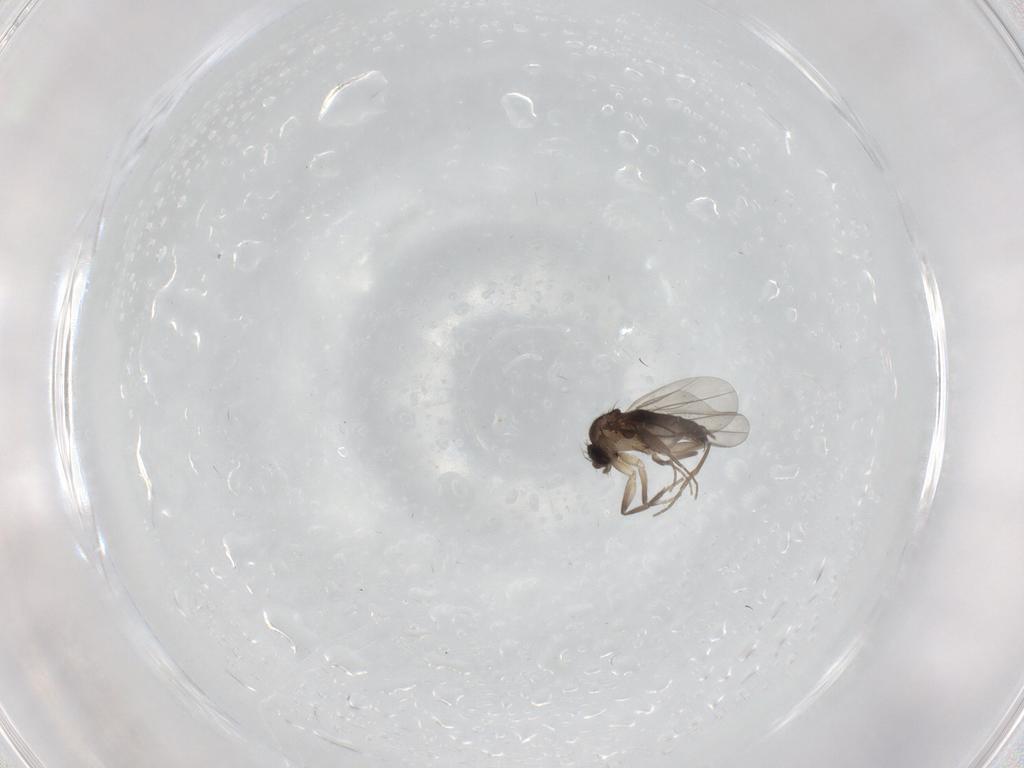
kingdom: Animalia
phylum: Arthropoda
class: Insecta
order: Diptera
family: Phoridae
